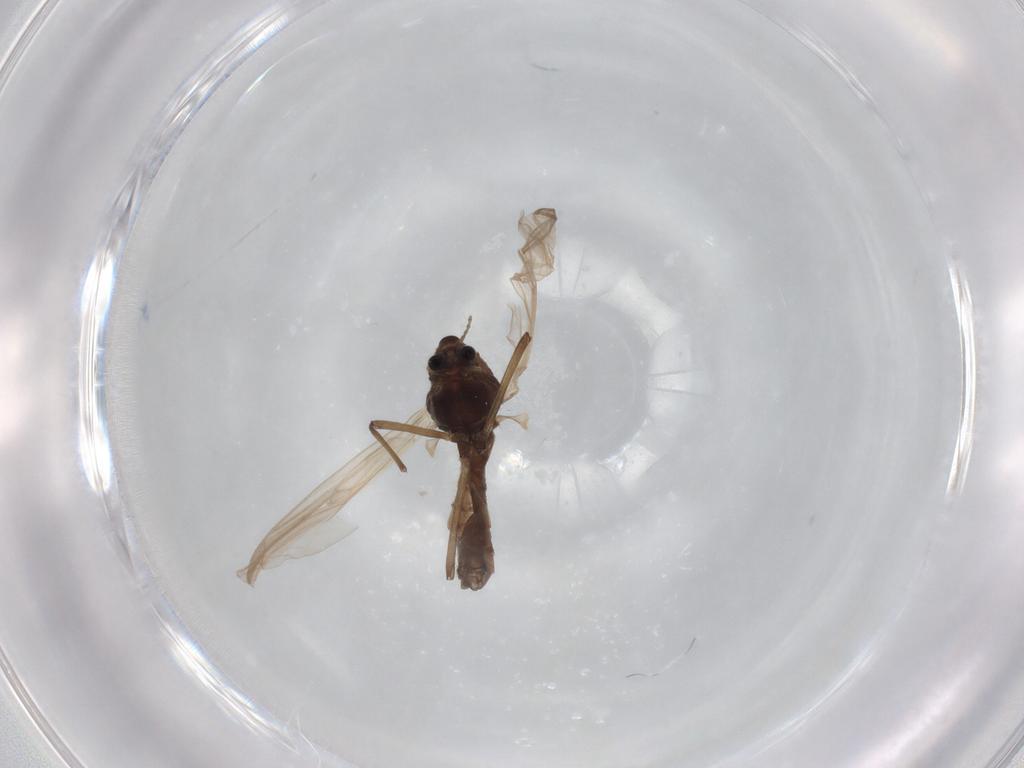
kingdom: Animalia
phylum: Arthropoda
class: Insecta
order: Diptera
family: Chironomidae
